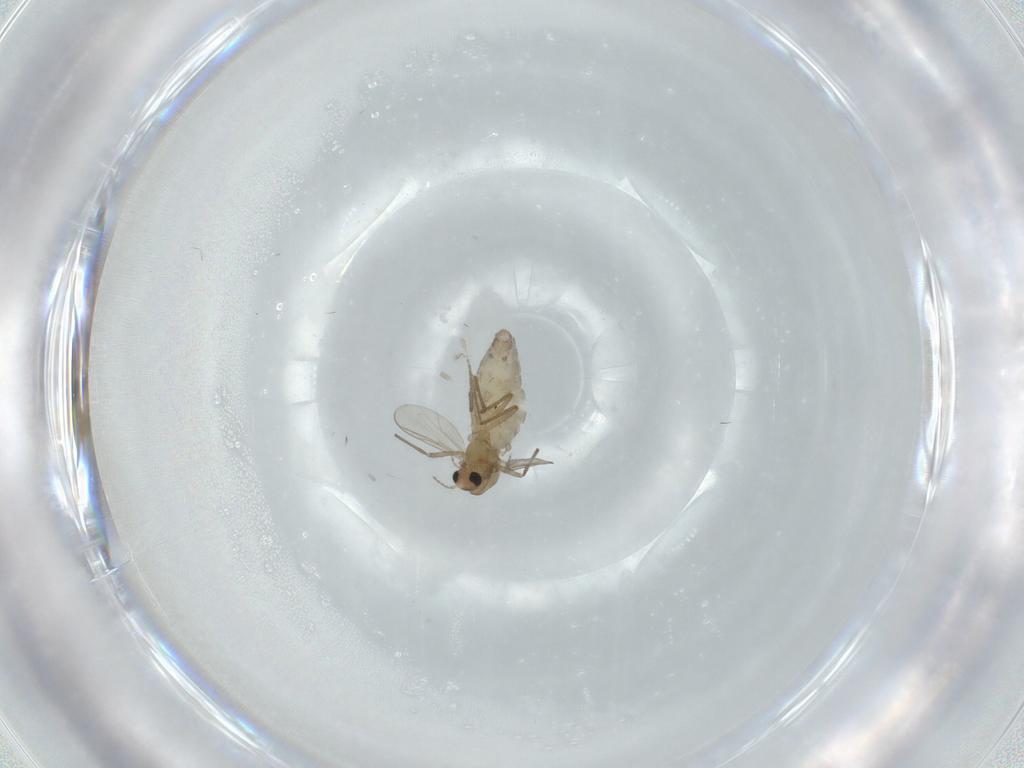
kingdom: Animalia
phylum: Arthropoda
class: Insecta
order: Diptera
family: Chironomidae
